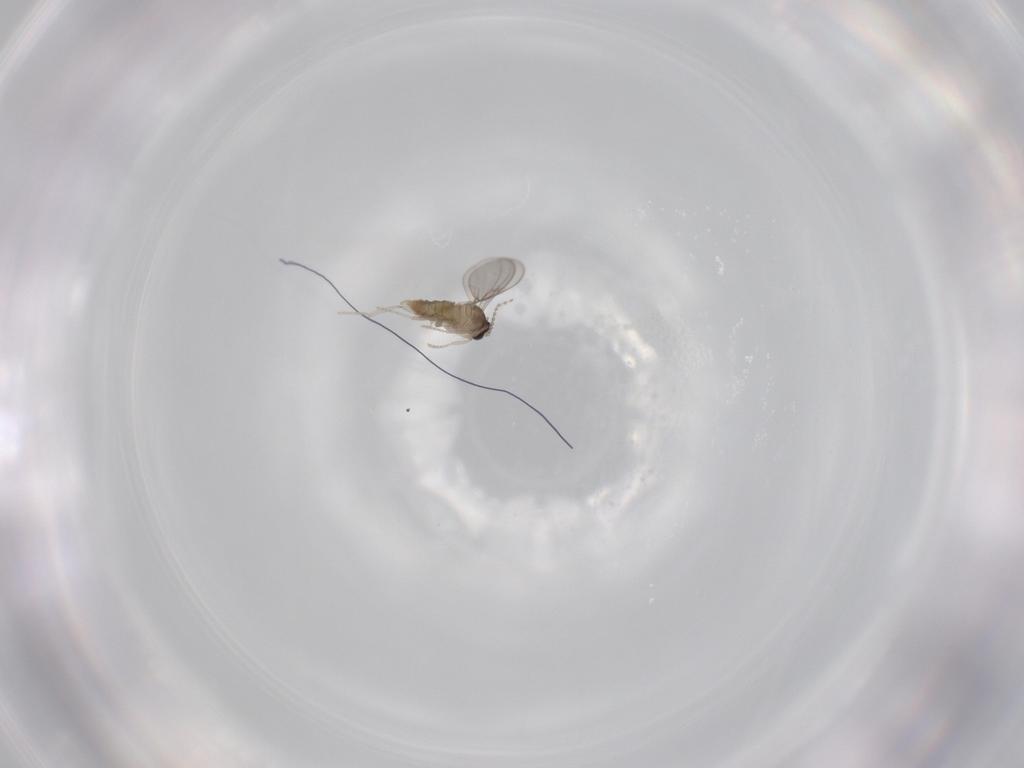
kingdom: Animalia
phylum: Arthropoda
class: Insecta
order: Diptera
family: Cecidomyiidae
